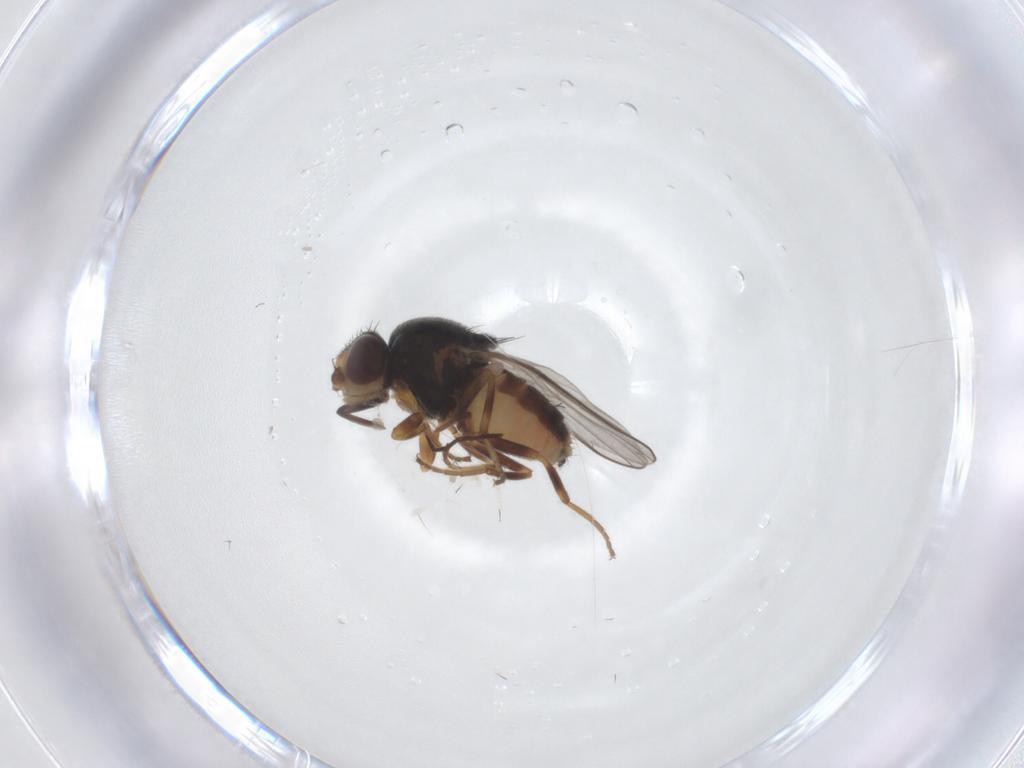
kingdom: Animalia
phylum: Arthropoda
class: Insecta
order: Diptera
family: Chloropidae
